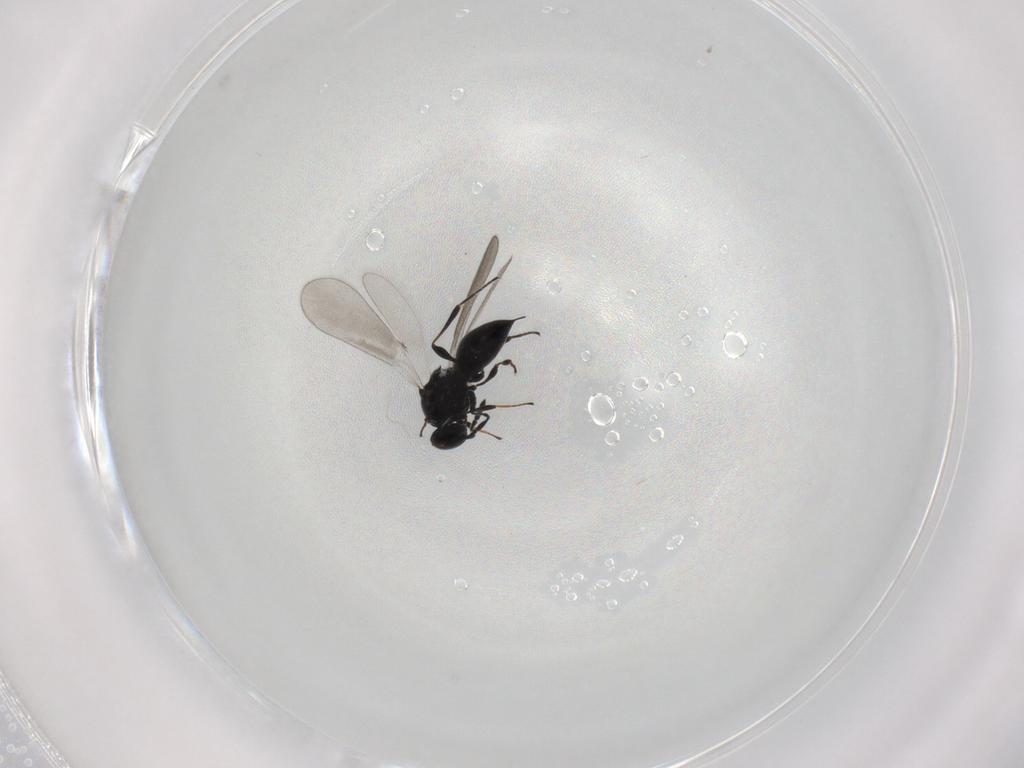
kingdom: Animalia
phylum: Arthropoda
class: Insecta
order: Hymenoptera
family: Platygastridae
